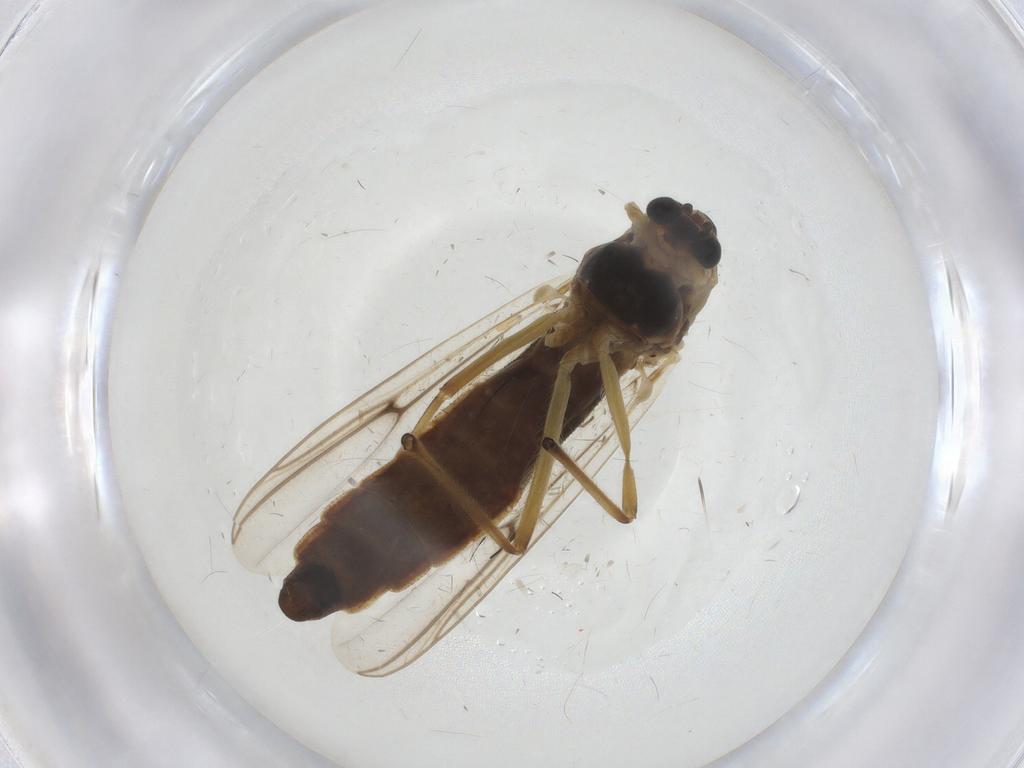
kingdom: Animalia
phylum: Arthropoda
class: Insecta
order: Diptera
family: Chironomidae
